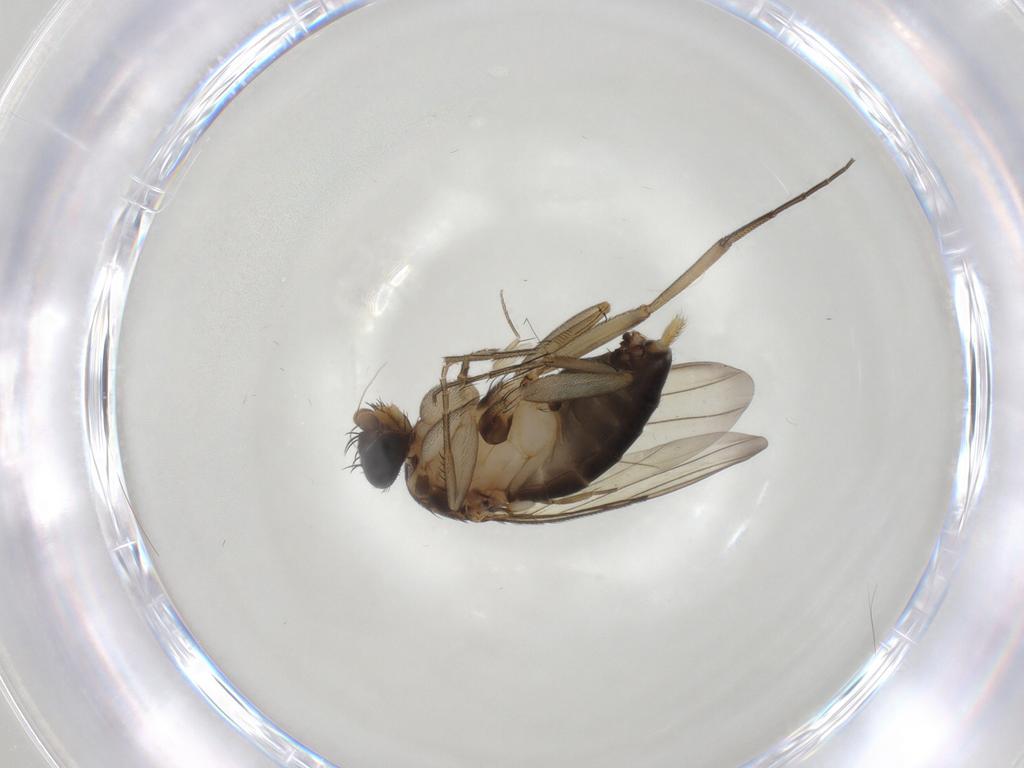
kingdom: Animalia
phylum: Arthropoda
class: Insecta
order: Diptera
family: Phoridae
